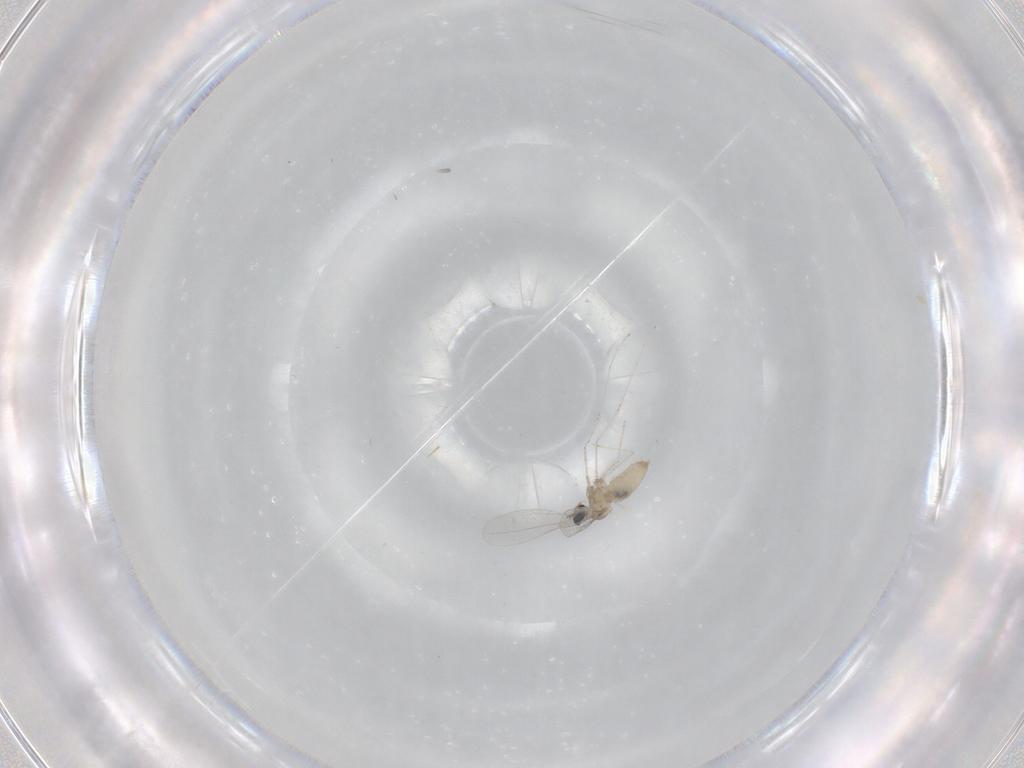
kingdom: Animalia
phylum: Arthropoda
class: Insecta
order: Diptera
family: Cecidomyiidae
